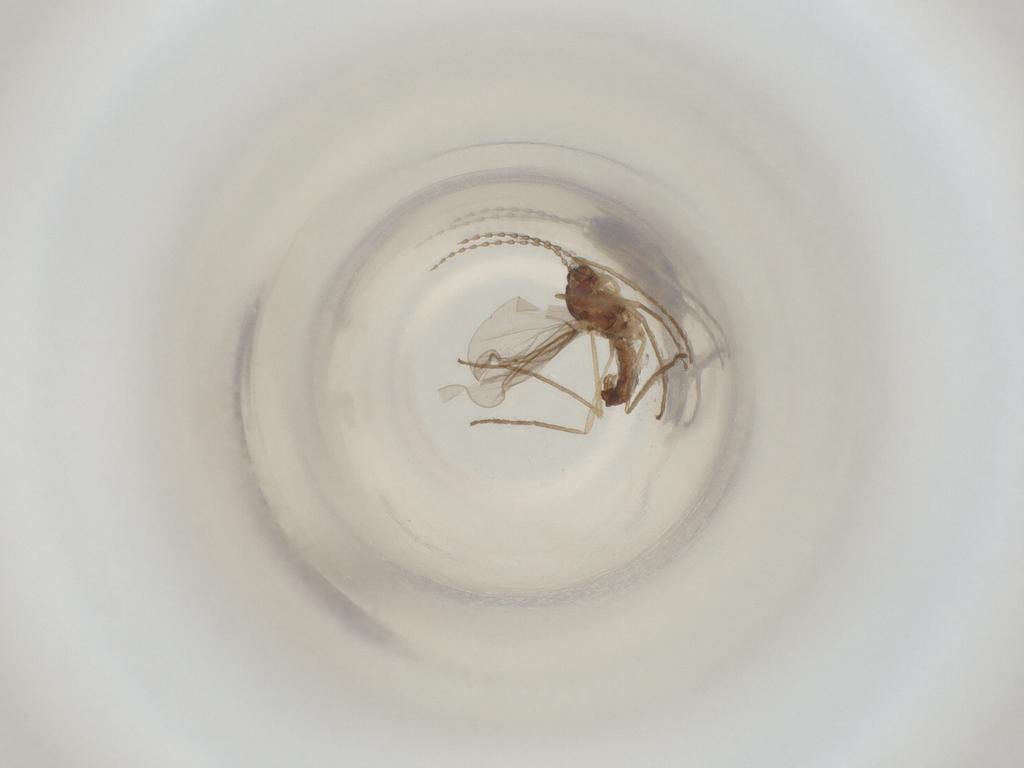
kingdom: Animalia
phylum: Arthropoda
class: Insecta
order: Diptera
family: Cecidomyiidae
